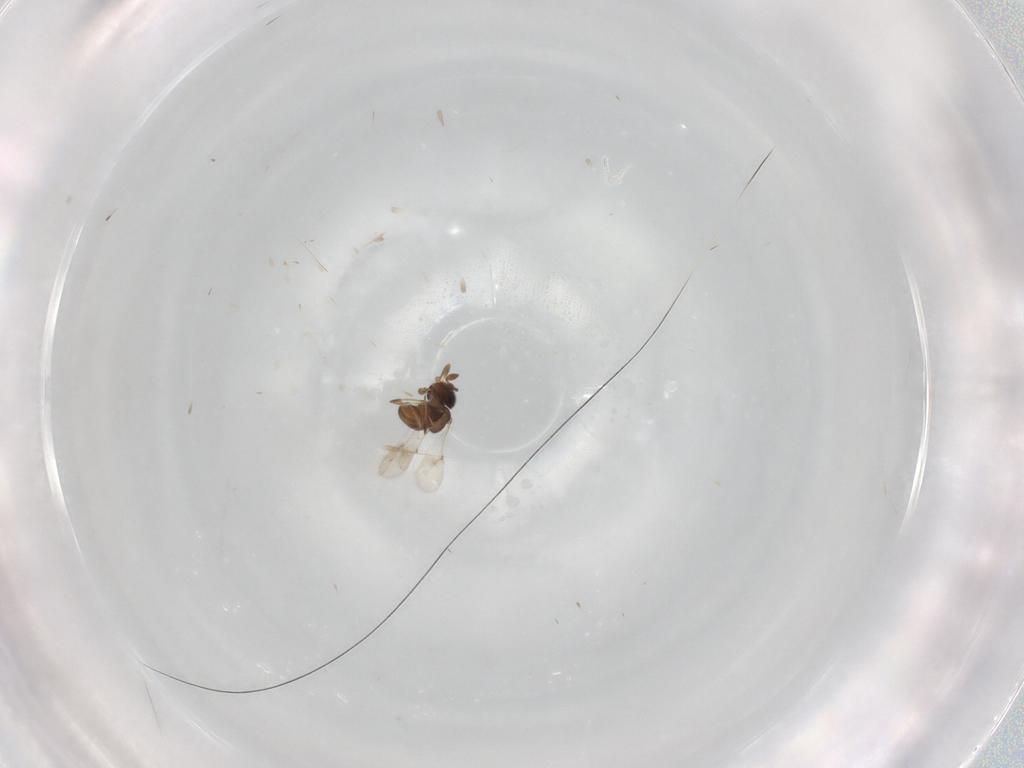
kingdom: Animalia
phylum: Arthropoda
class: Insecta
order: Hymenoptera
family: Scelionidae
